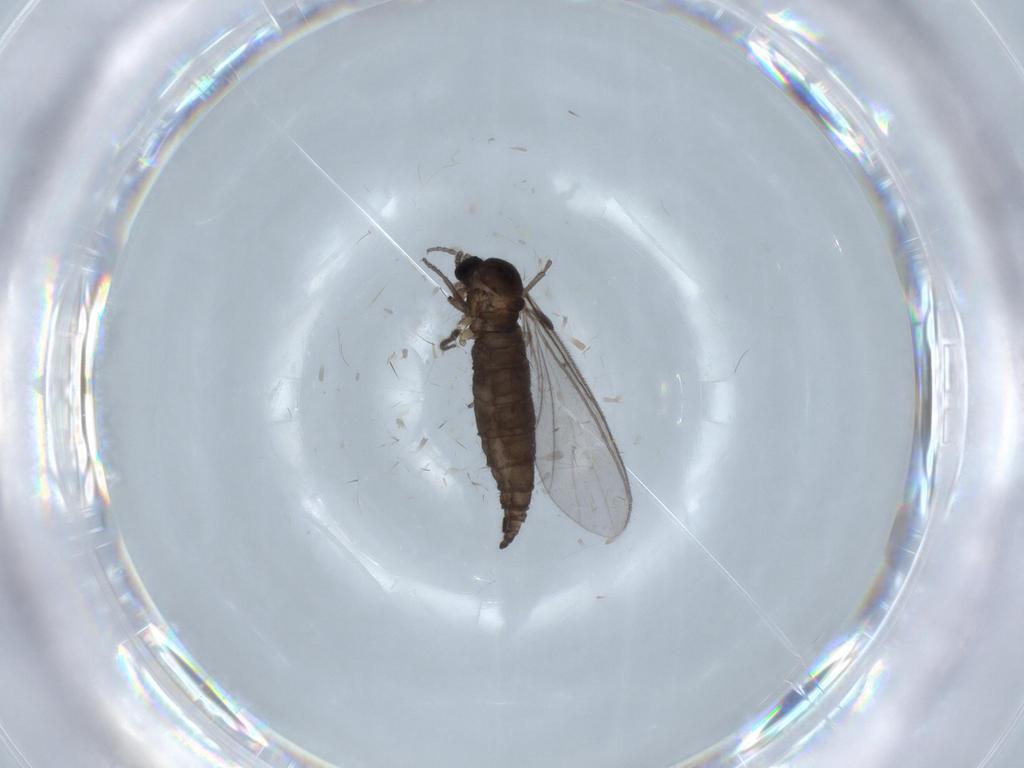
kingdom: Animalia
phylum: Arthropoda
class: Insecta
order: Diptera
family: Sciaridae
